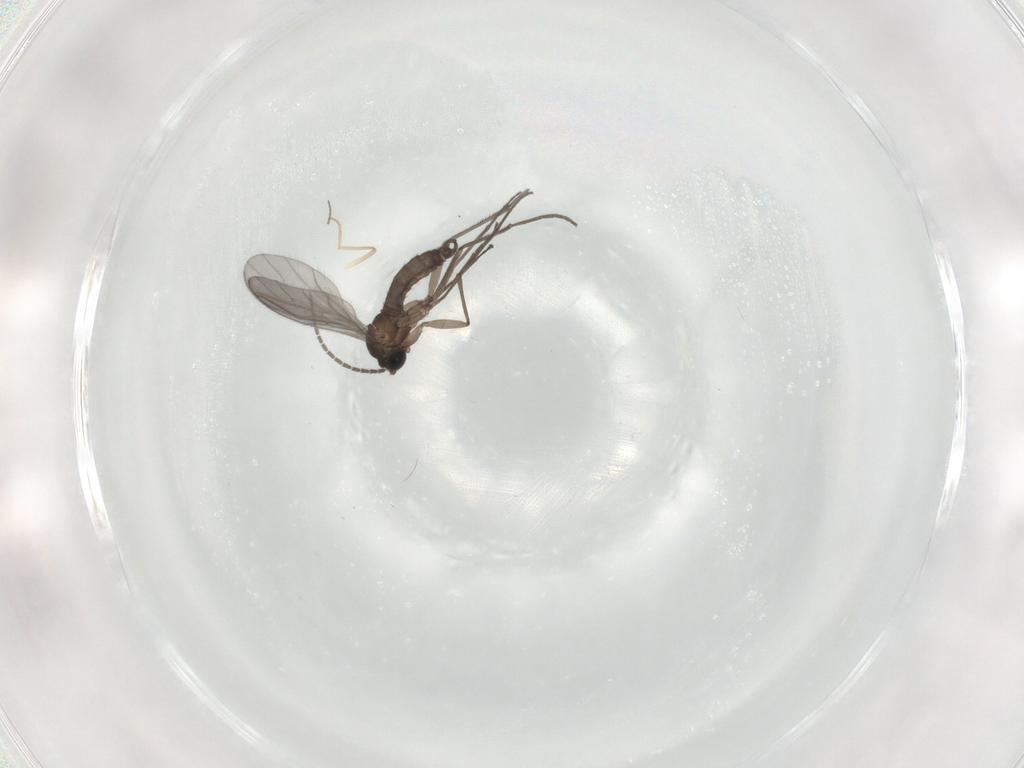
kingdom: Animalia
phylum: Arthropoda
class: Insecta
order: Diptera
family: Sciaridae
